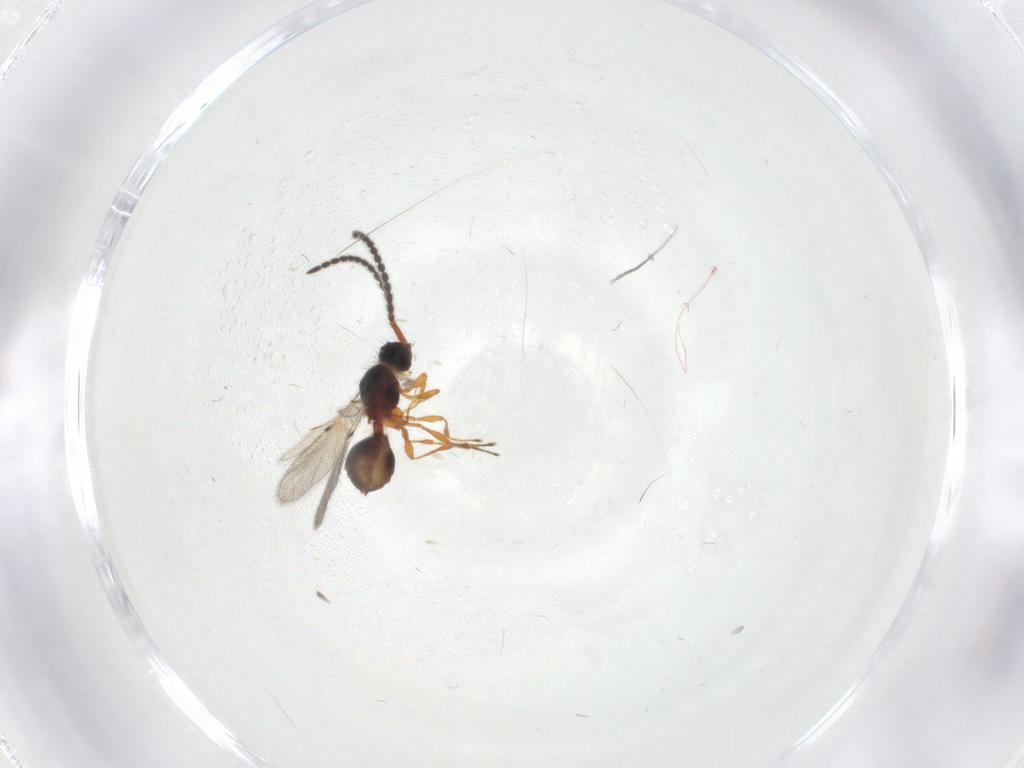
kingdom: Animalia
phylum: Arthropoda
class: Insecta
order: Hymenoptera
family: Diapriidae
